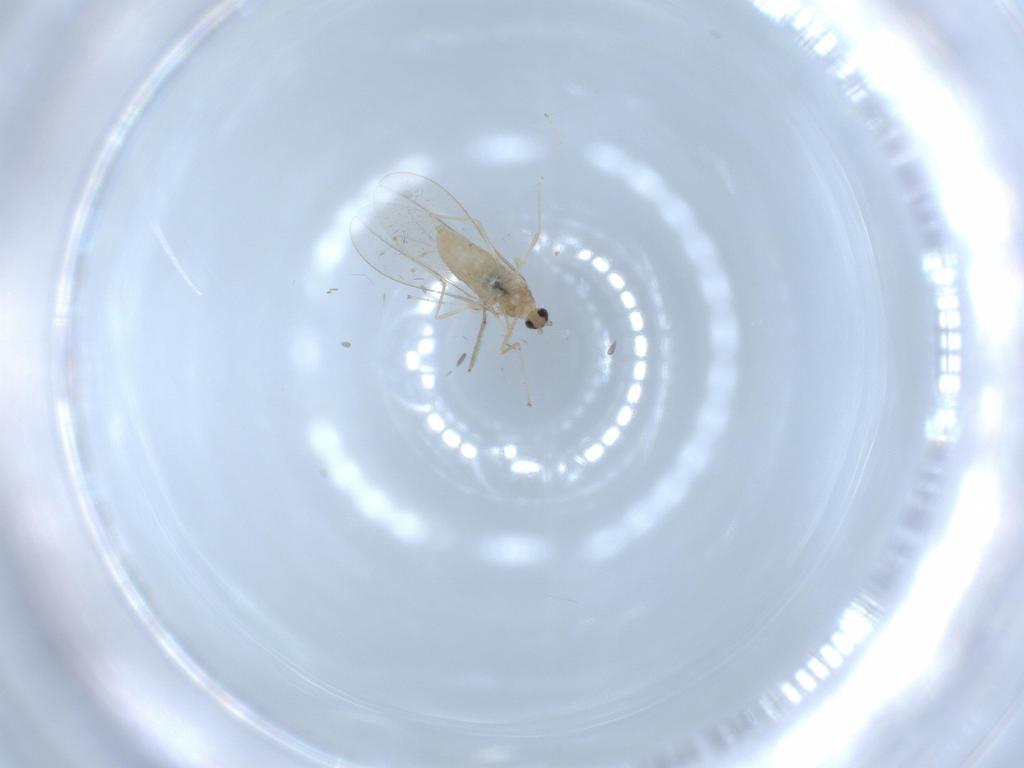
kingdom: Animalia
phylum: Arthropoda
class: Insecta
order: Diptera
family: Cecidomyiidae
